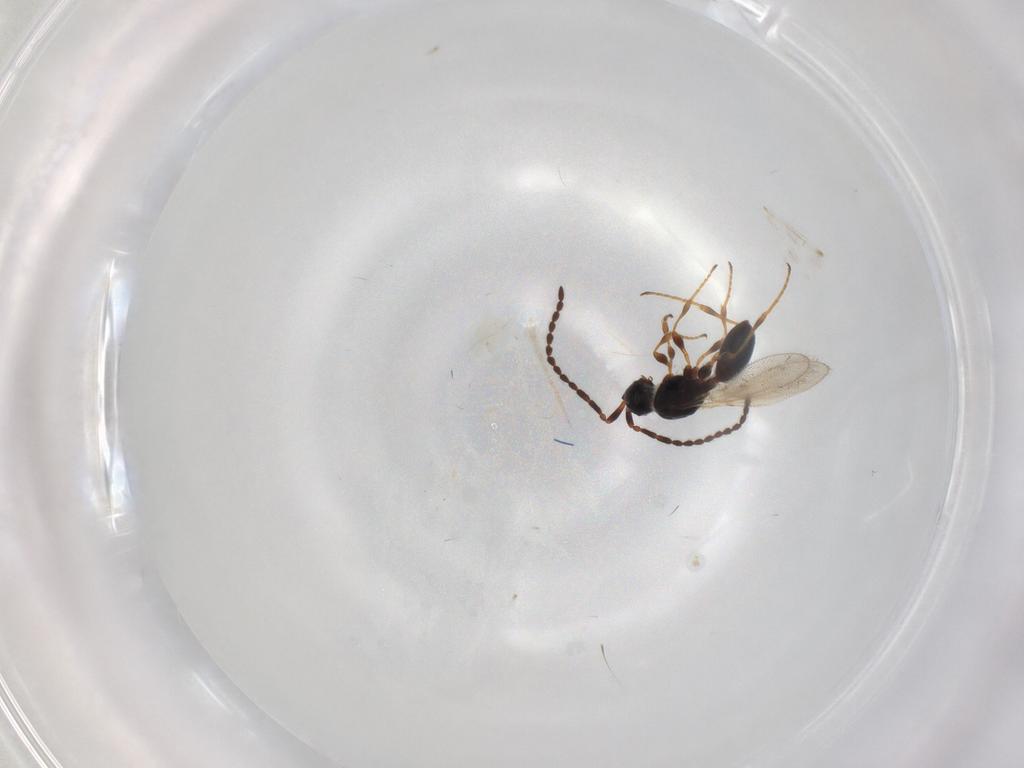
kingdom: Animalia
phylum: Arthropoda
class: Insecta
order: Hymenoptera
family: Diapriidae
